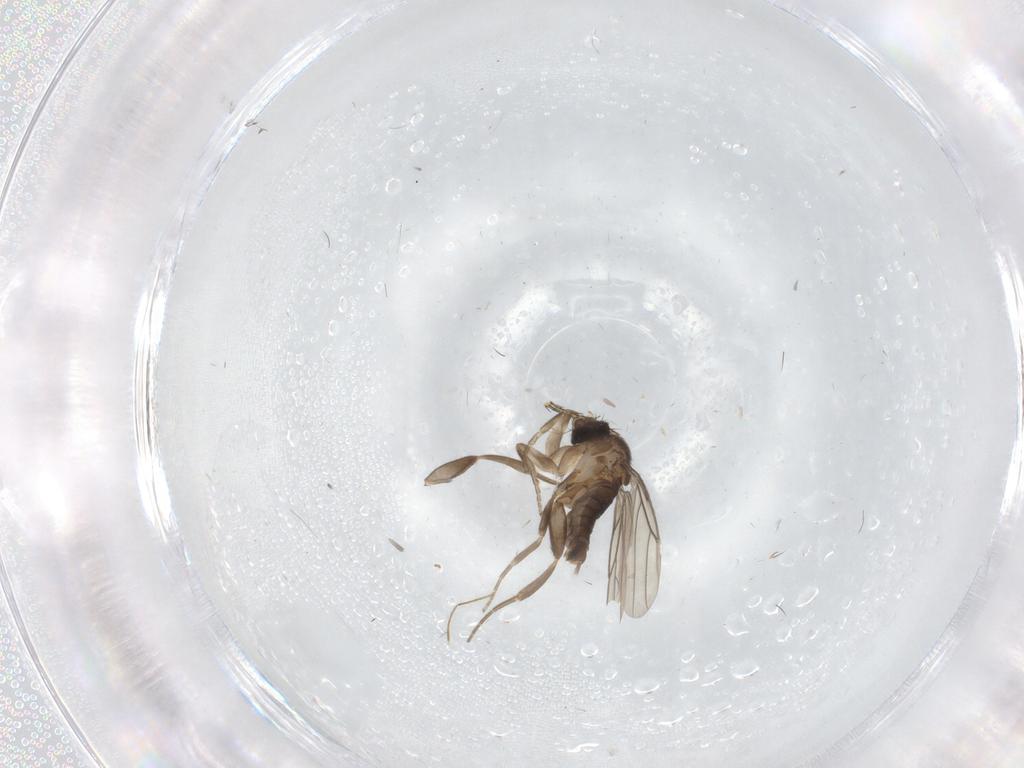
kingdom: Animalia
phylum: Arthropoda
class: Insecta
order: Diptera
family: Phoridae
